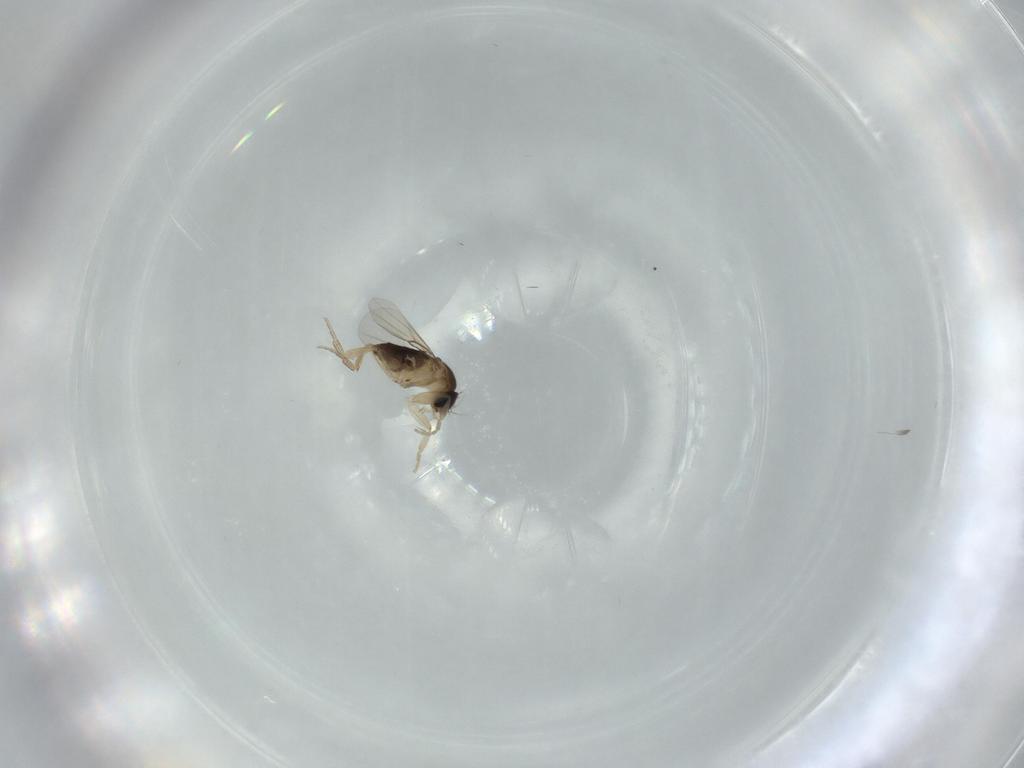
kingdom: Animalia
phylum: Arthropoda
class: Insecta
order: Diptera
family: Phoridae
